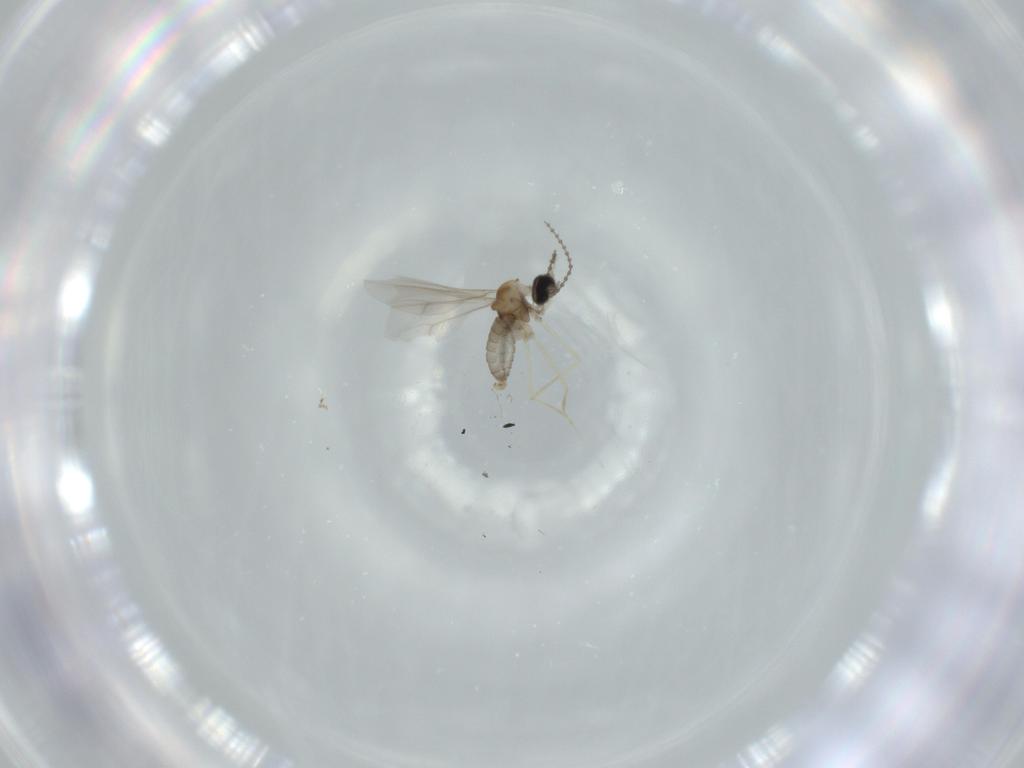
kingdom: Animalia
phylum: Arthropoda
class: Insecta
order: Diptera
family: Cecidomyiidae
